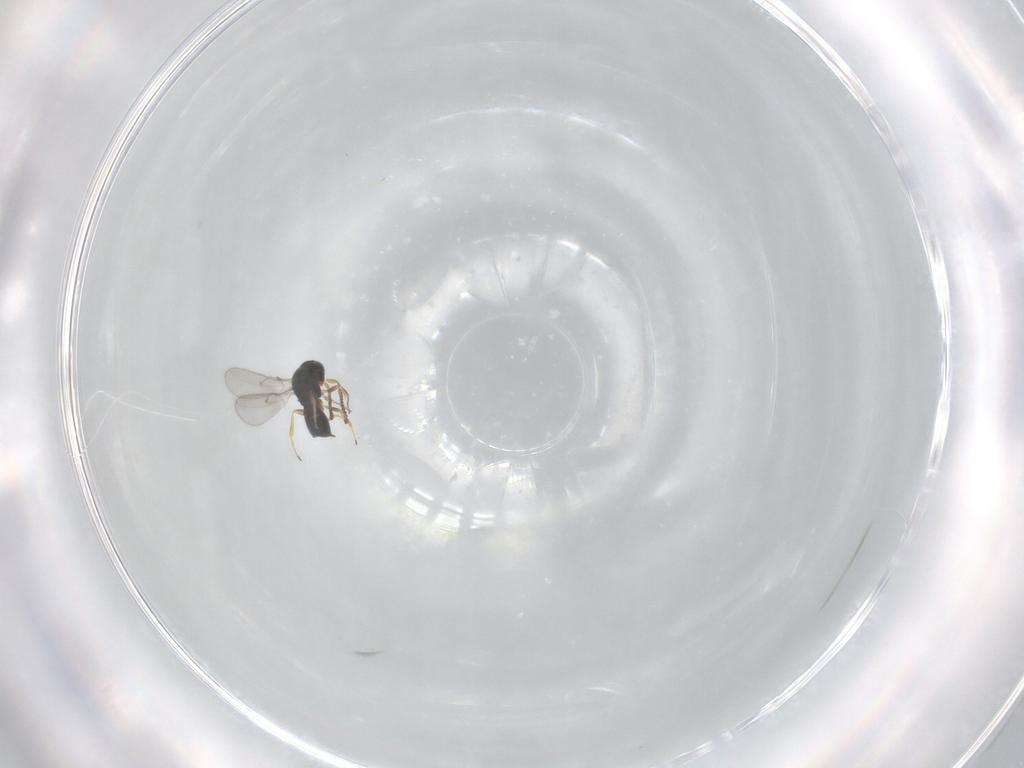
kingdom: Animalia
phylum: Arthropoda
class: Insecta
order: Hymenoptera
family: Scelionidae
